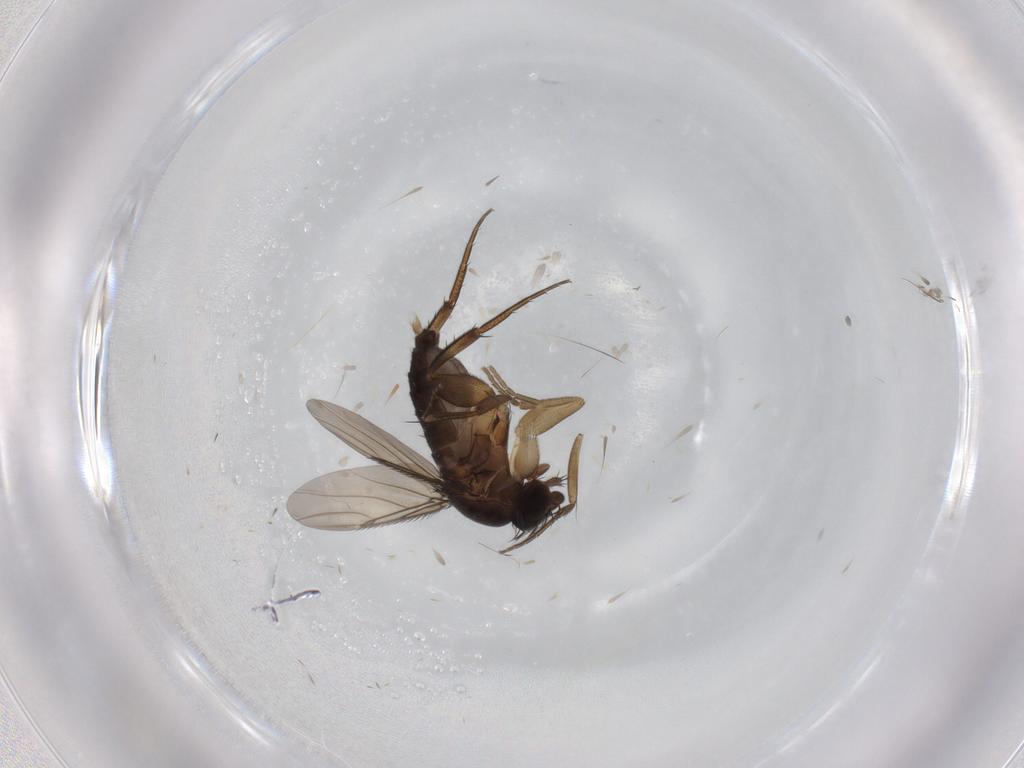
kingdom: Animalia
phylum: Arthropoda
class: Insecta
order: Diptera
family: Phoridae
